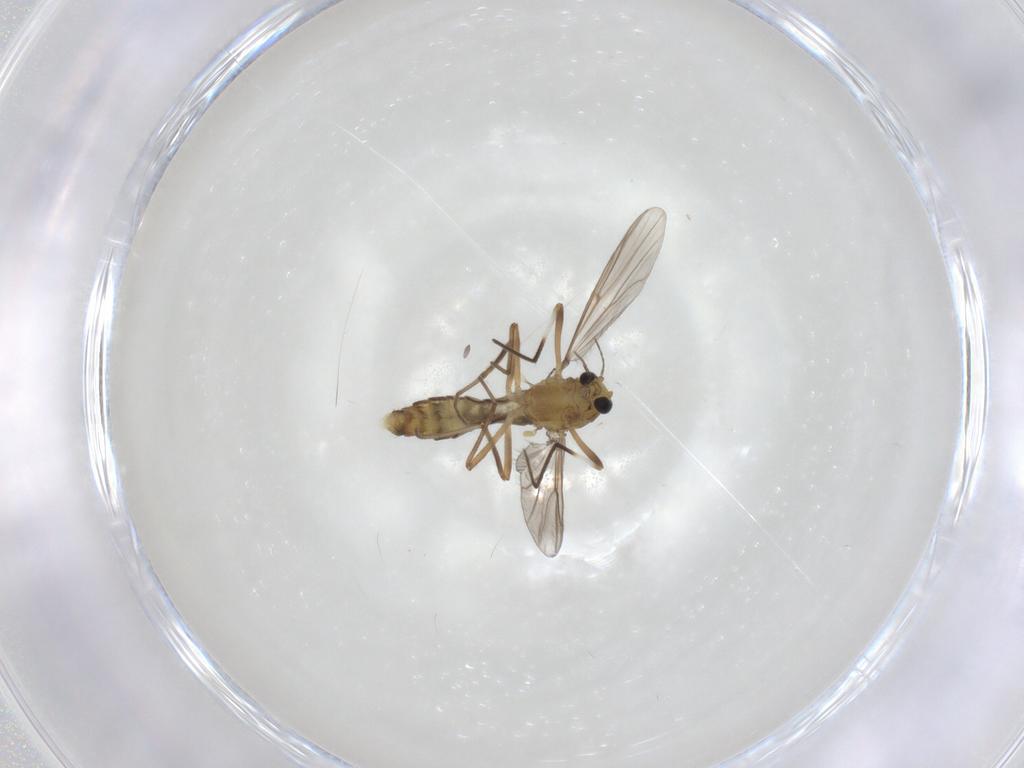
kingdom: Animalia
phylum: Arthropoda
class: Insecta
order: Diptera
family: Chironomidae
